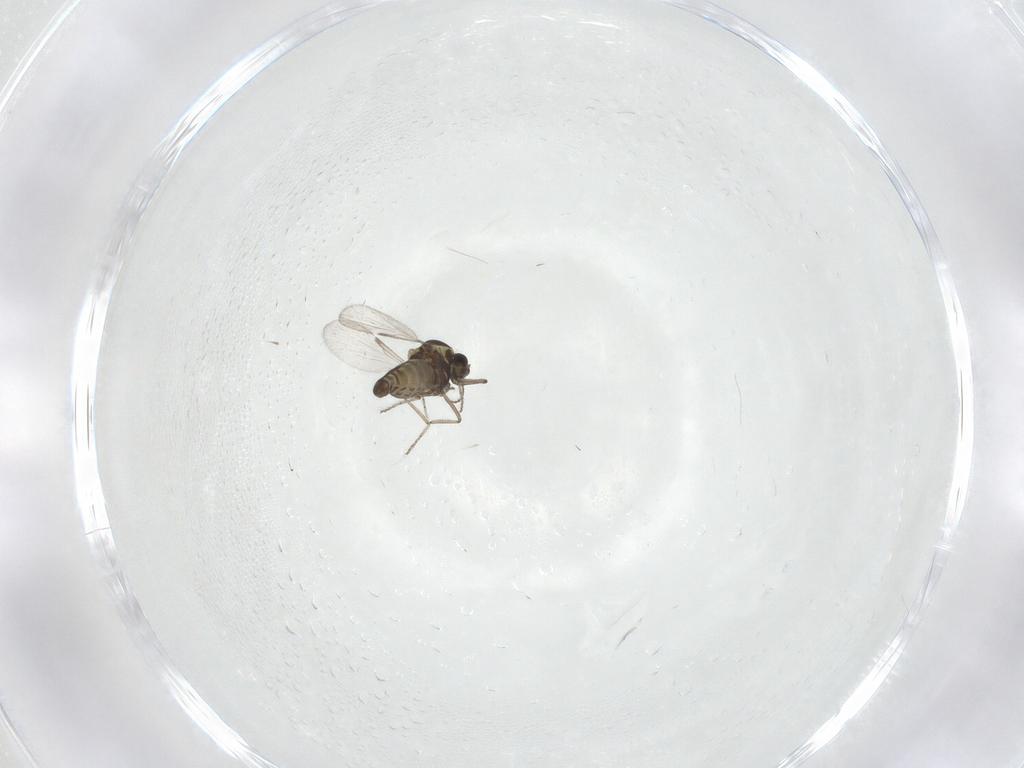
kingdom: Animalia
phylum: Arthropoda
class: Insecta
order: Diptera
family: Ceratopogonidae
